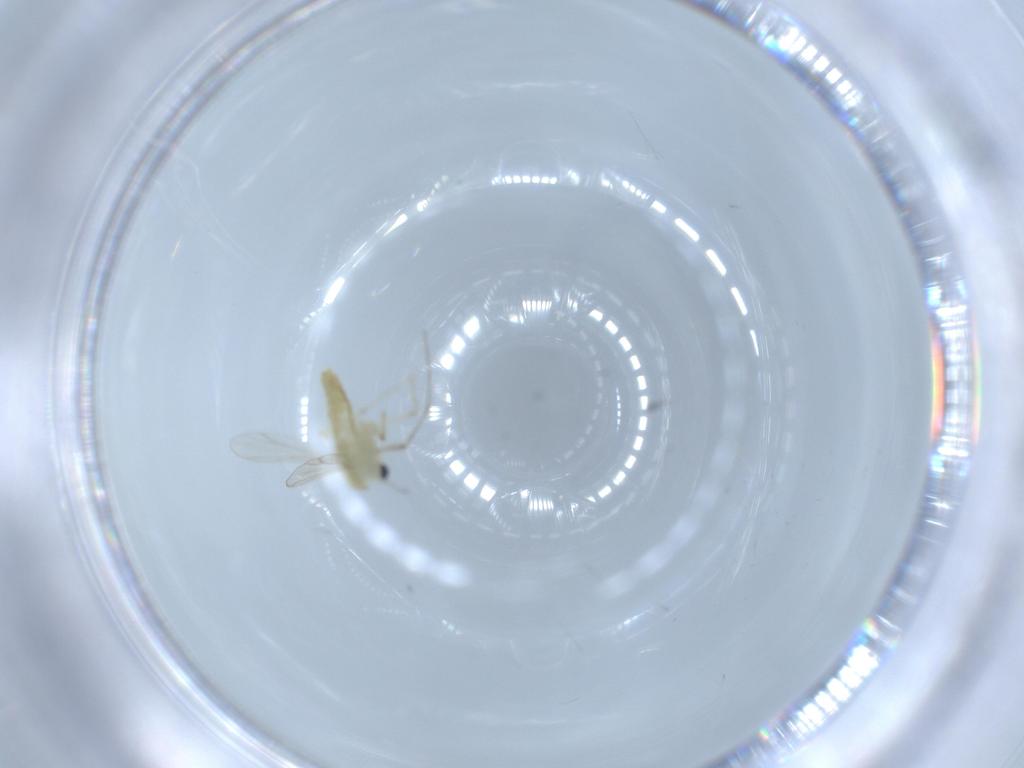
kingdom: Animalia
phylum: Arthropoda
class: Insecta
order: Diptera
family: Chironomidae
